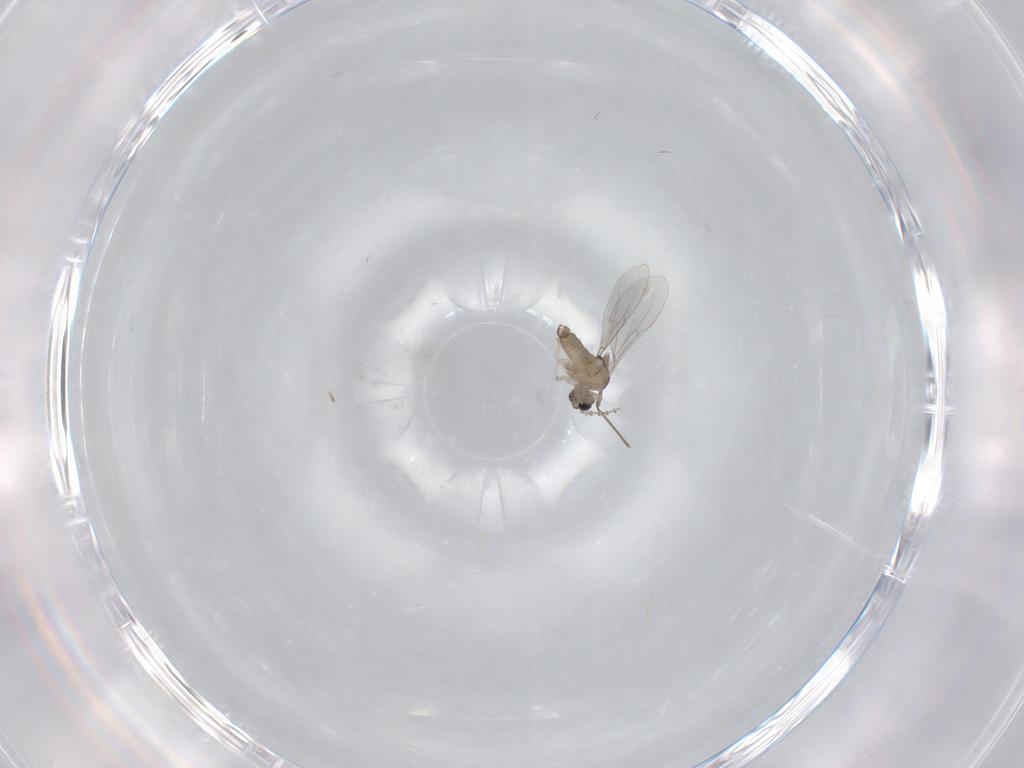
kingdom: Animalia
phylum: Arthropoda
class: Insecta
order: Diptera
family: Cecidomyiidae
